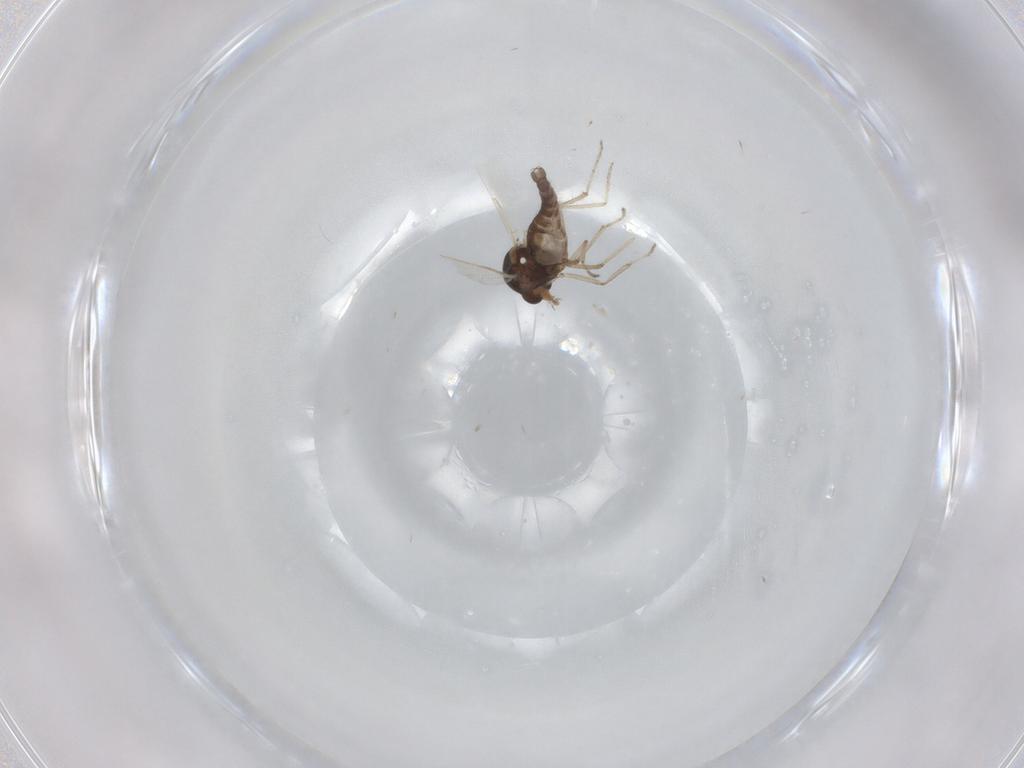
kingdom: Animalia
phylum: Arthropoda
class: Insecta
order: Diptera
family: Ceratopogonidae
